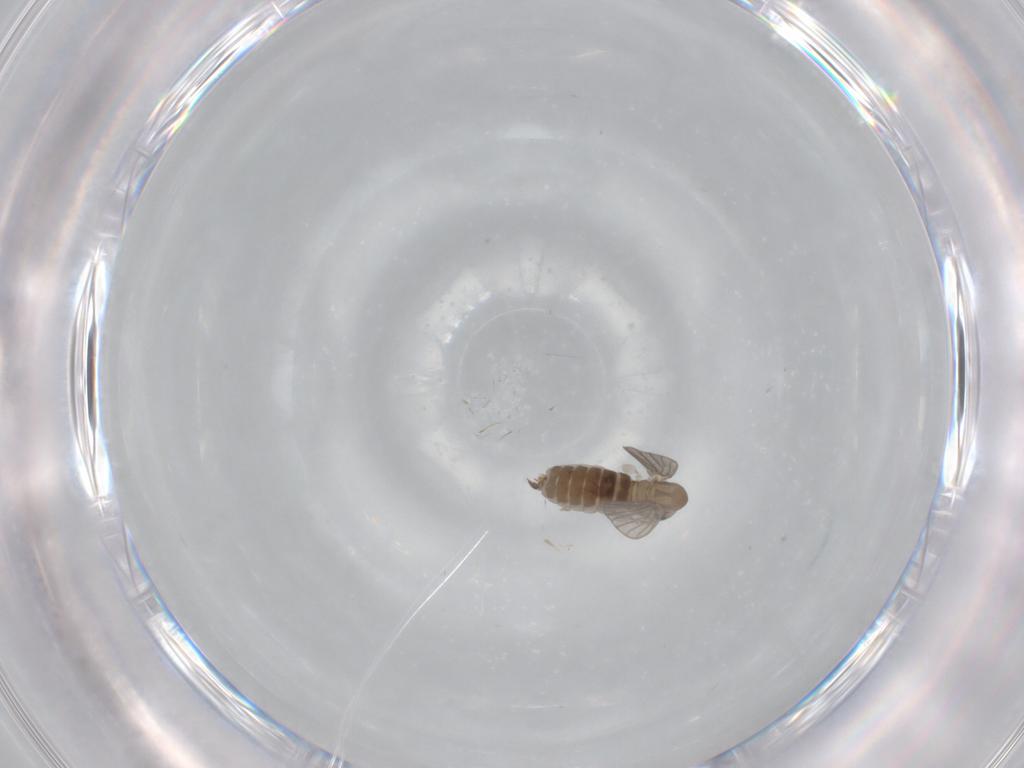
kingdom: Animalia
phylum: Arthropoda
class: Insecta
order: Diptera
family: Psychodidae
